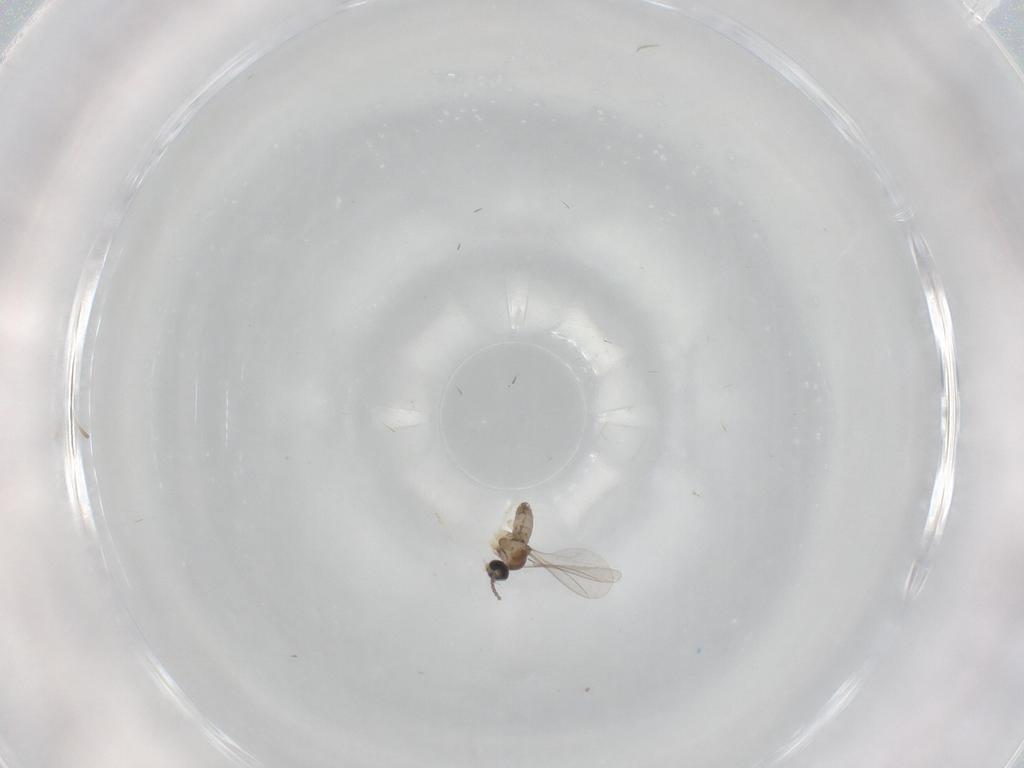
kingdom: Animalia
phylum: Arthropoda
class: Insecta
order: Diptera
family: Cecidomyiidae
